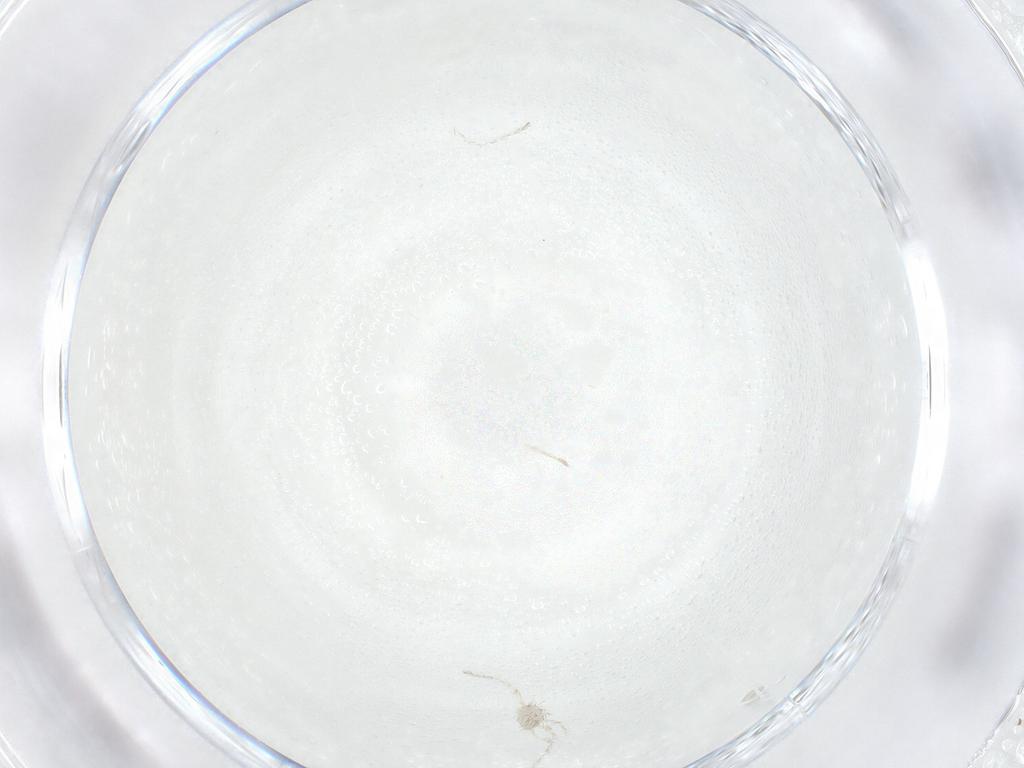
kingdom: Animalia
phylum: Arthropoda
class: Arachnida
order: Trombidiformes
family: Erythraeidae
